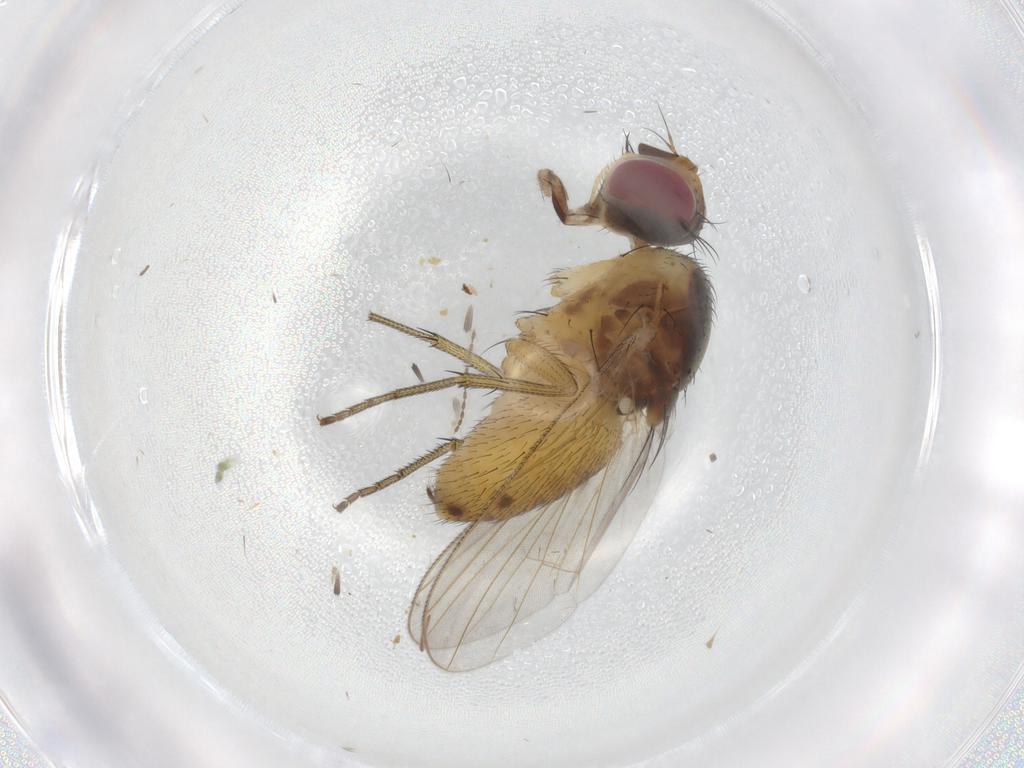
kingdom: Animalia
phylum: Arthropoda
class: Insecta
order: Diptera
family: Muscidae
